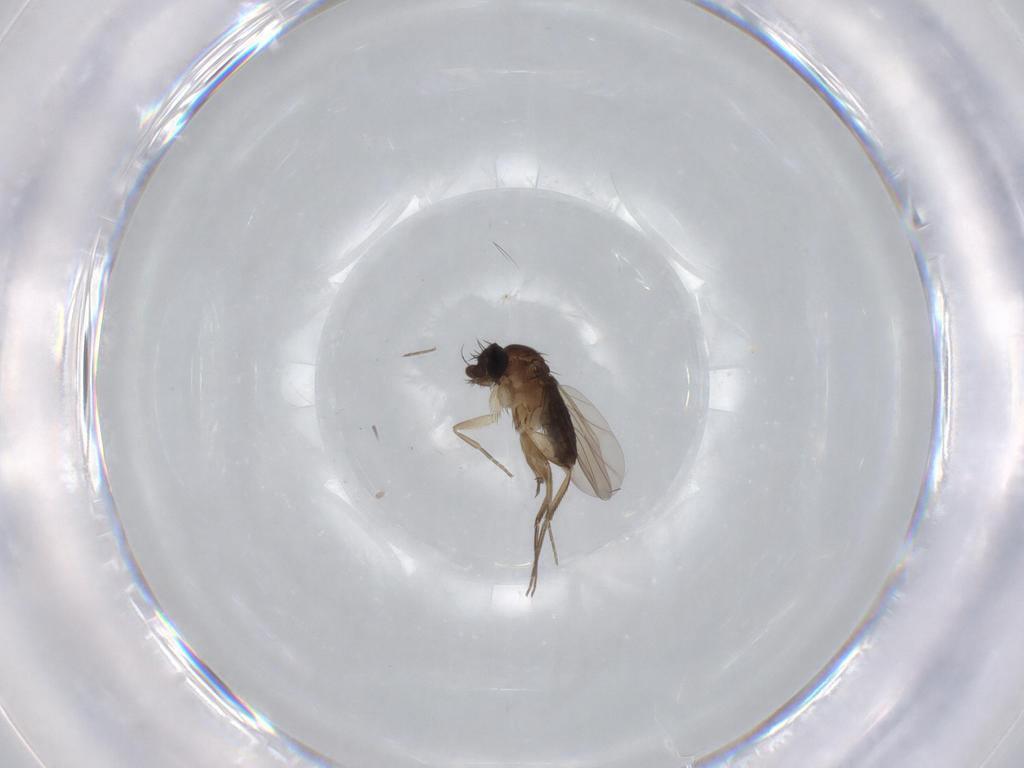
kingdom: Animalia
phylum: Arthropoda
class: Insecta
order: Diptera
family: Phoridae
